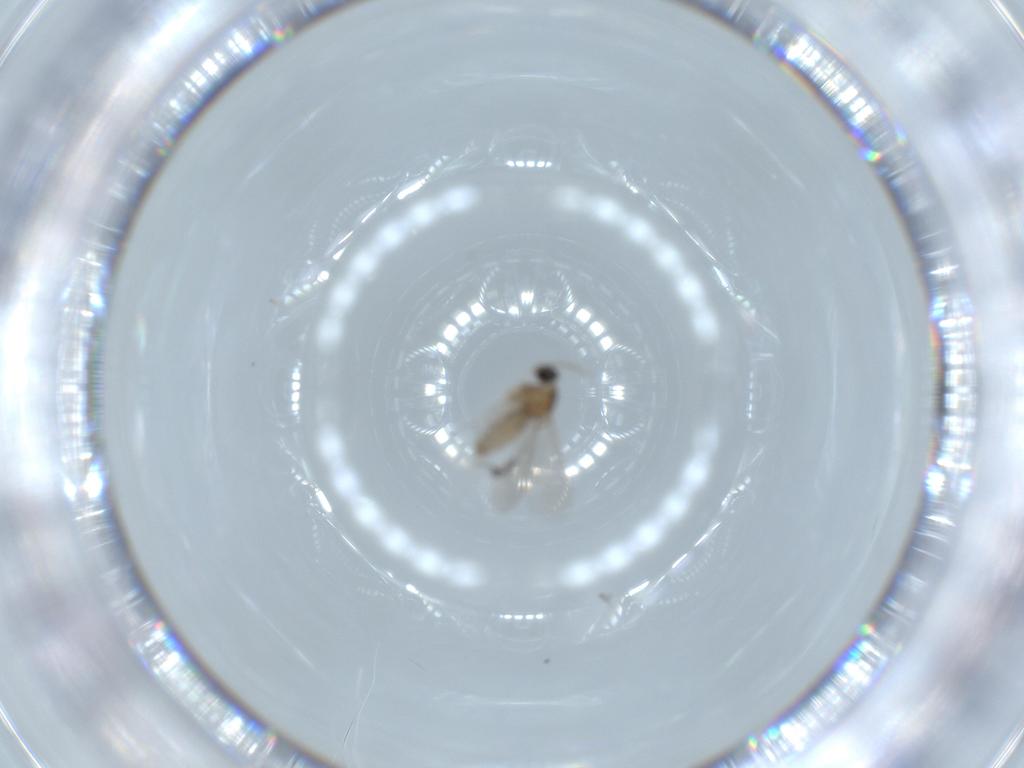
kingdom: Animalia
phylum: Arthropoda
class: Insecta
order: Diptera
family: Cecidomyiidae
